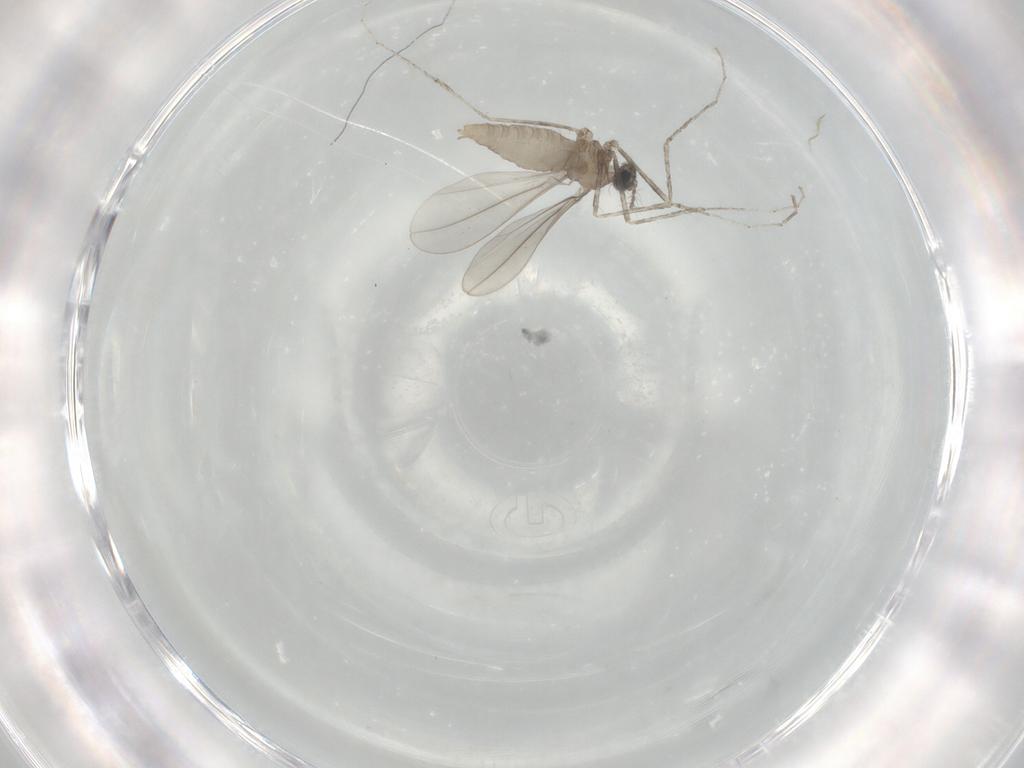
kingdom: Animalia
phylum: Arthropoda
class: Insecta
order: Diptera
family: Cecidomyiidae
